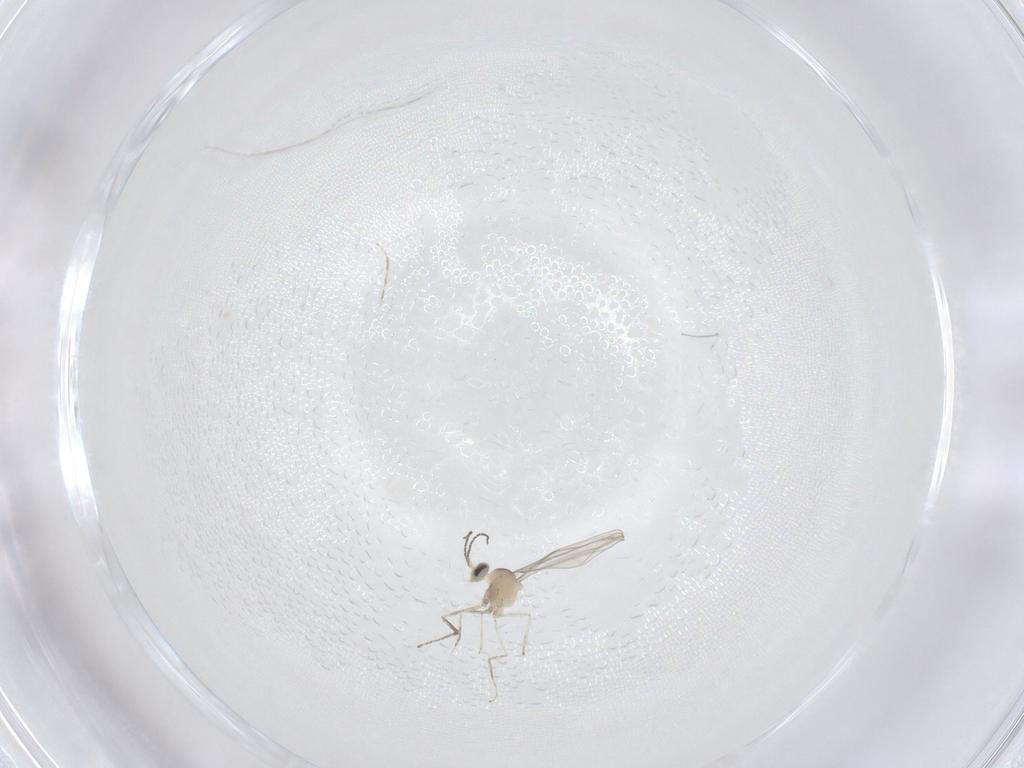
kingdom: Animalia
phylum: Arthropoda
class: Insecta
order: Diptera
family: Cecidomyiidae
